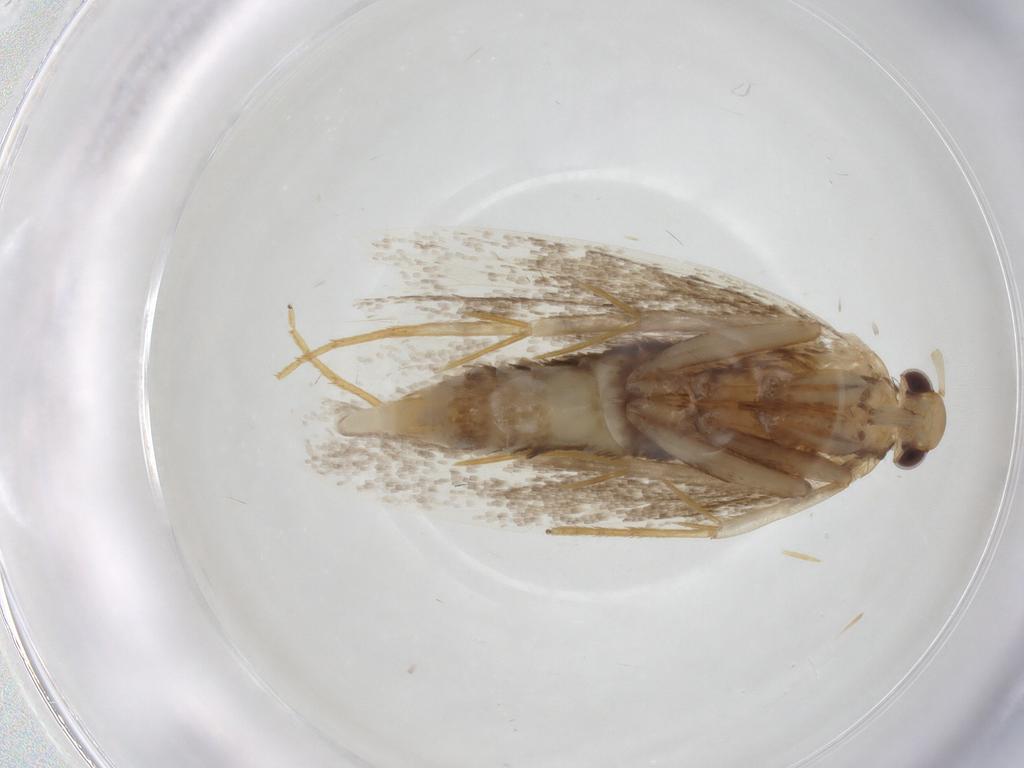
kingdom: Animalia
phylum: Arthropoda
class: Insecta
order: Lepidoptera
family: Lecithoceridae
